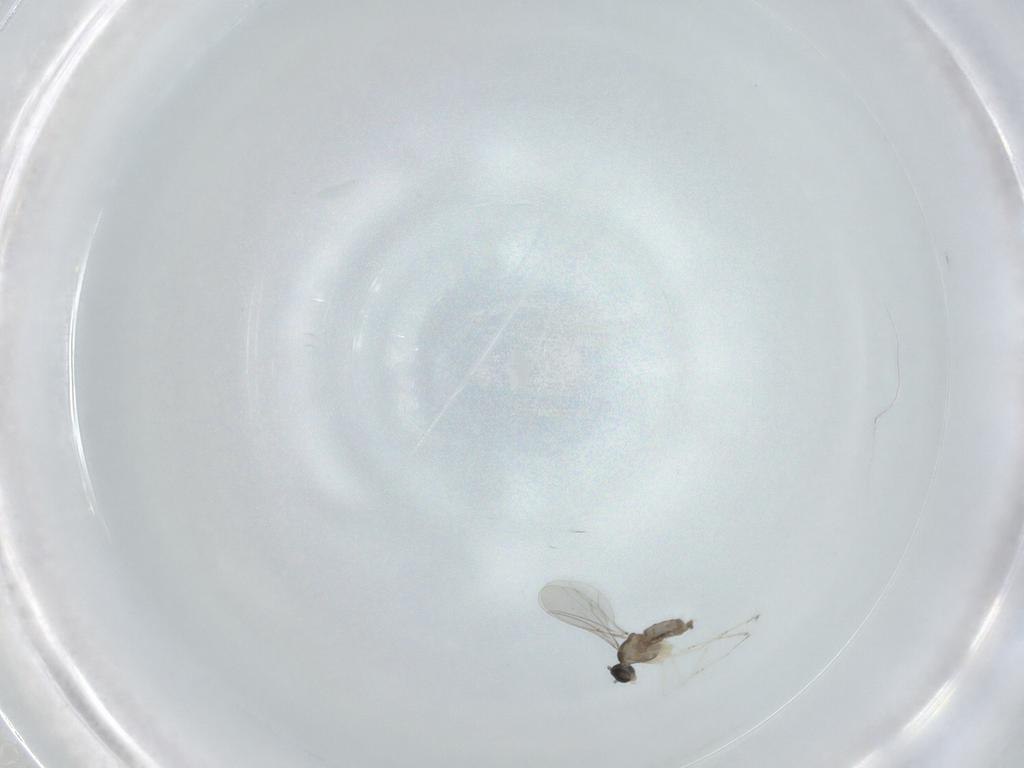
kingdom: Animalia
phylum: Arthropoda
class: Insecta
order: Diptera
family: Cecidomyiidae
